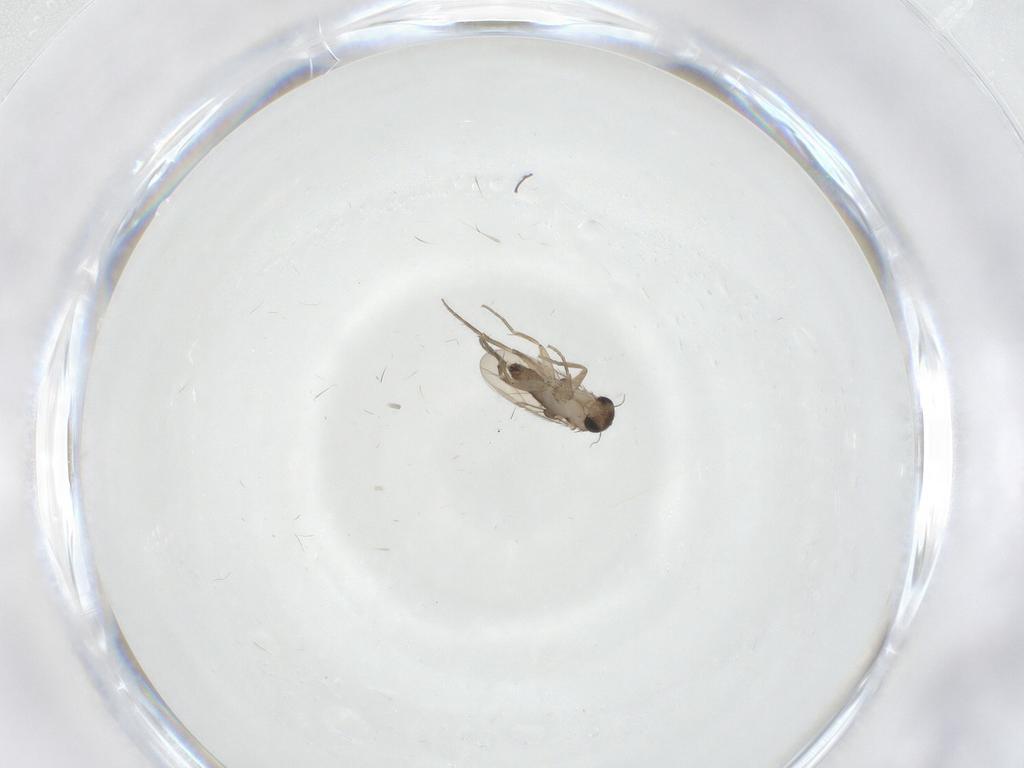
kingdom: Animalia
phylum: Arthropoda
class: Insecta
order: Diptera
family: Phoridae
